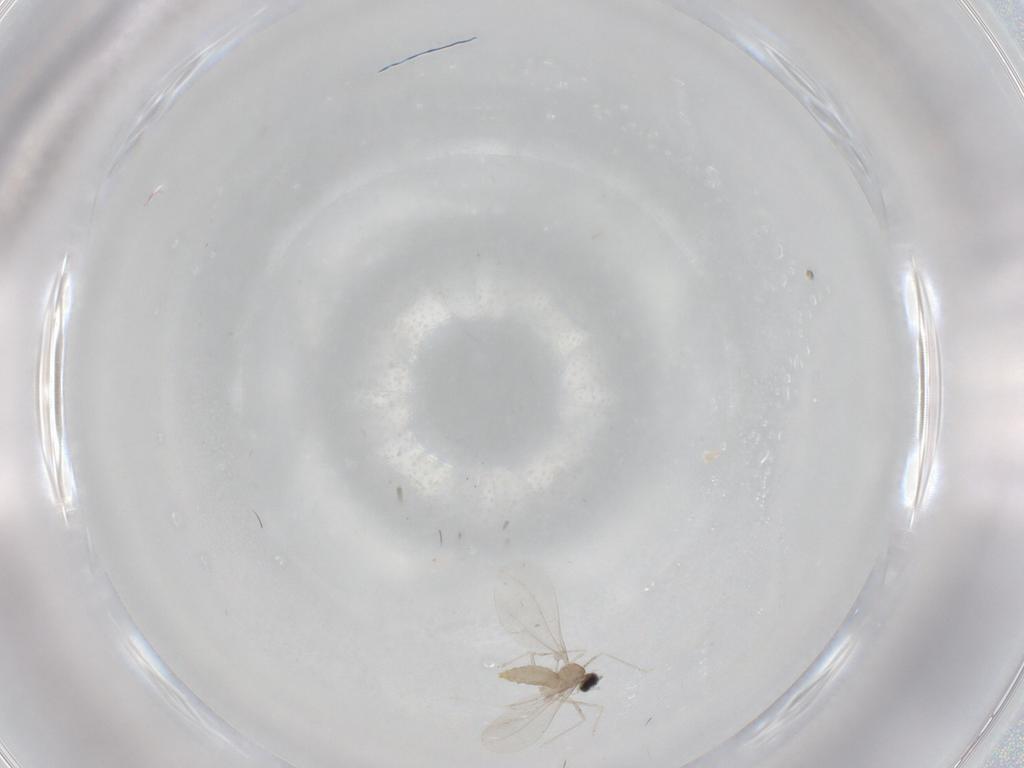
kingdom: Animalia
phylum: Arthropoda
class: Insecta
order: Diptera
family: Cecidomyiidae
